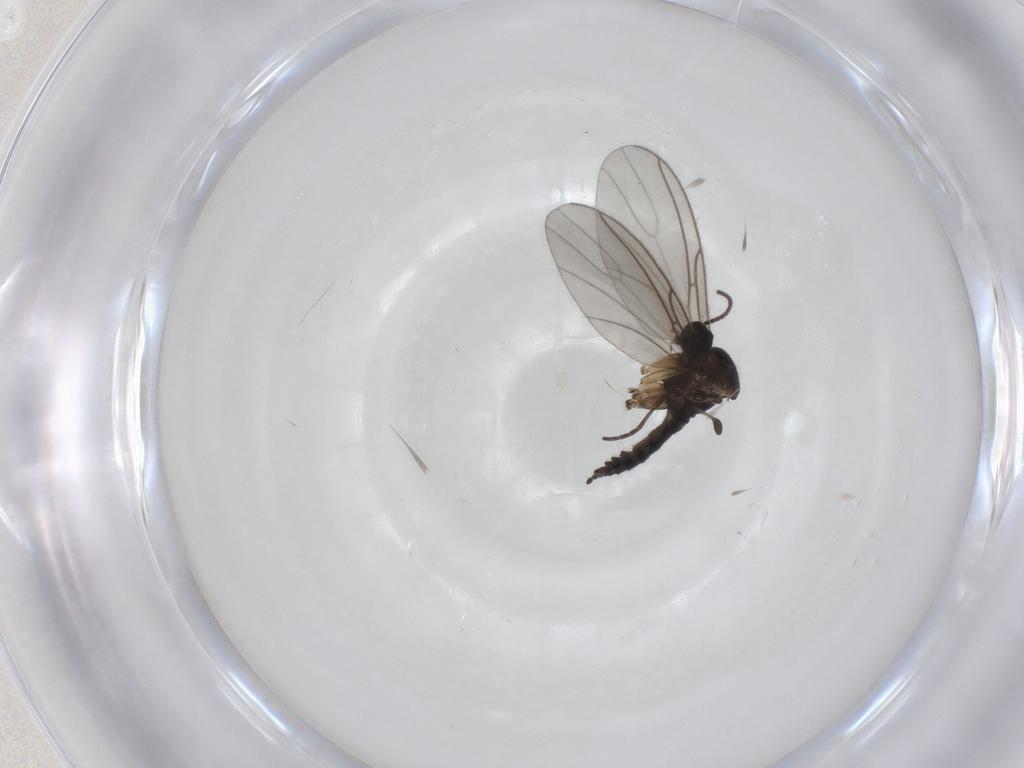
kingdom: Animalia
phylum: Arthropoda
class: Insecta
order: Diptera
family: Sciaridae
